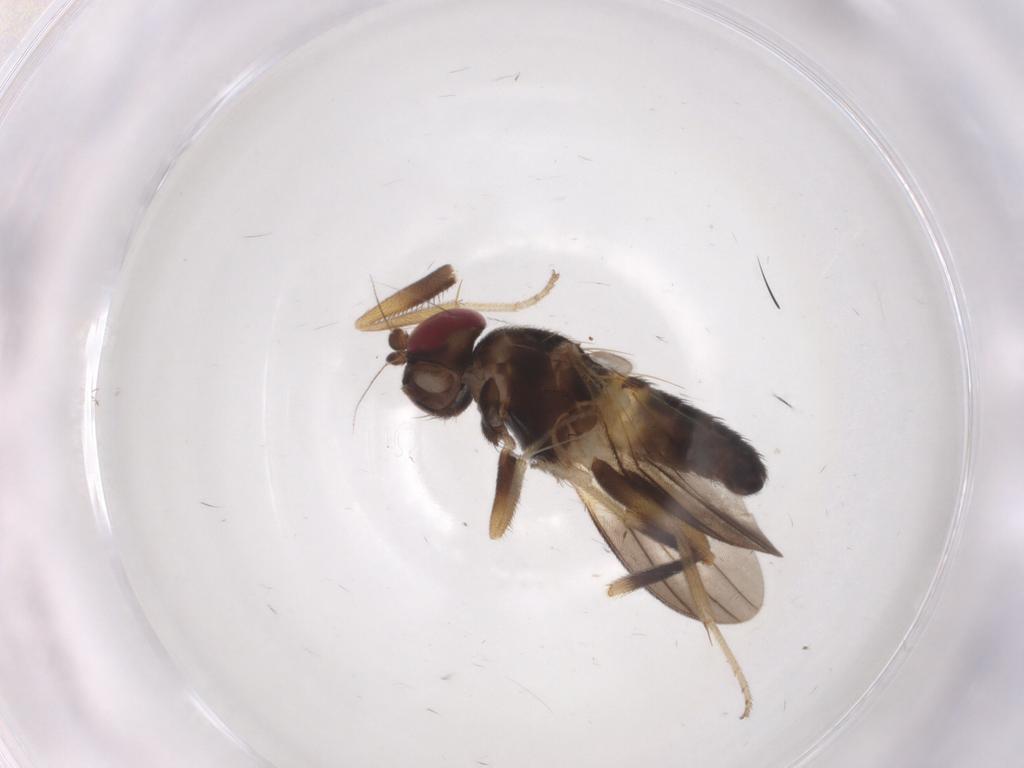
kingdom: Animalia
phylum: Arthropoda
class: Insecta
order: Diptera
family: Clusiidae
